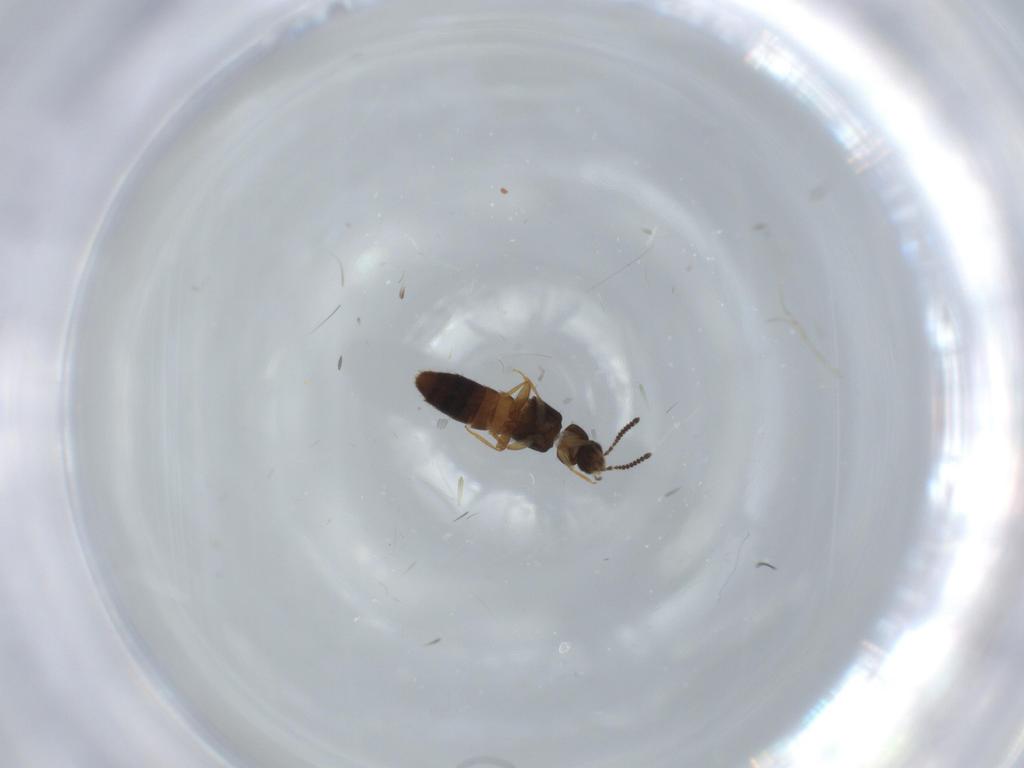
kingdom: Animalia
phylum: Arthropoda
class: Insecta
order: Coleoptera
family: Staphylinidae
